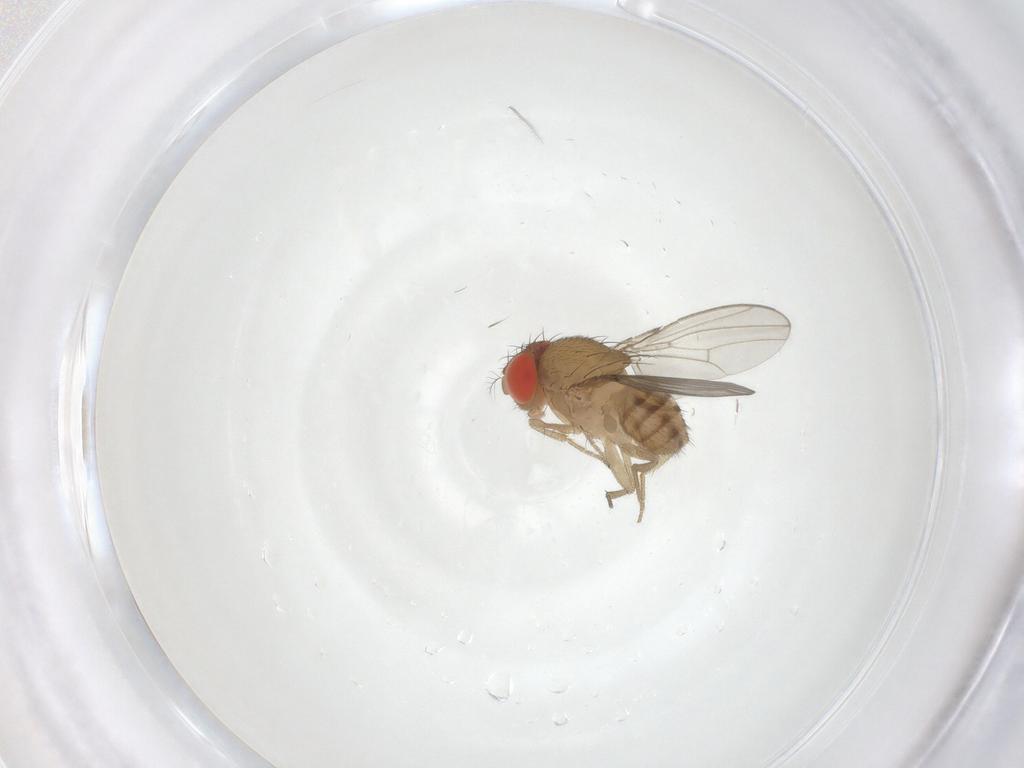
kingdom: Animalia
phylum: Arthropoda
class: Insecta
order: Diptera
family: Drosophilidae
